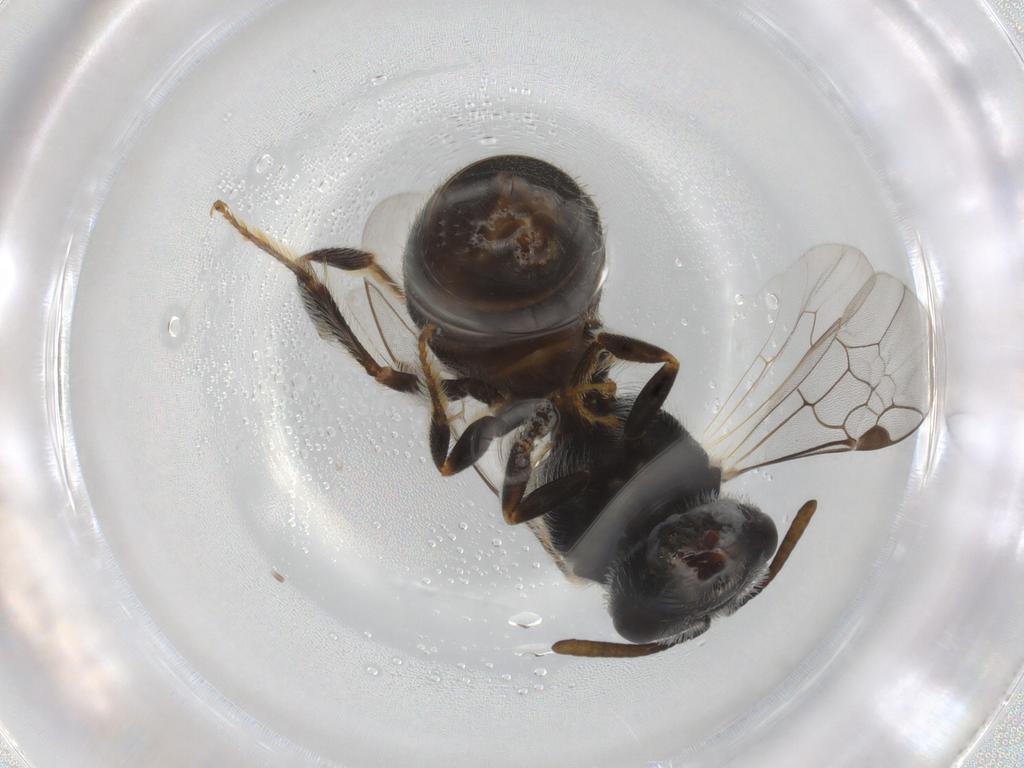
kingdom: Animalia
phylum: Arthropoda
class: Insecta
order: Hymenoptera
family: Halictidae
